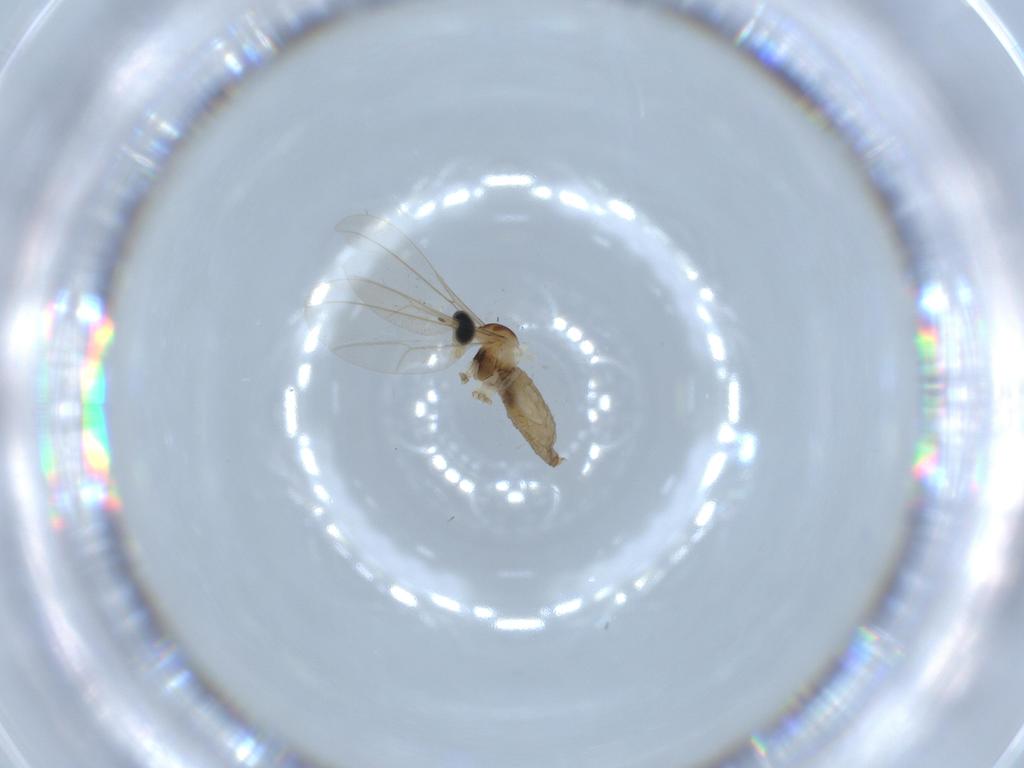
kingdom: Animalia
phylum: Arthropoda
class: Insecta
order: Diptera
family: Cecidomyiidae
